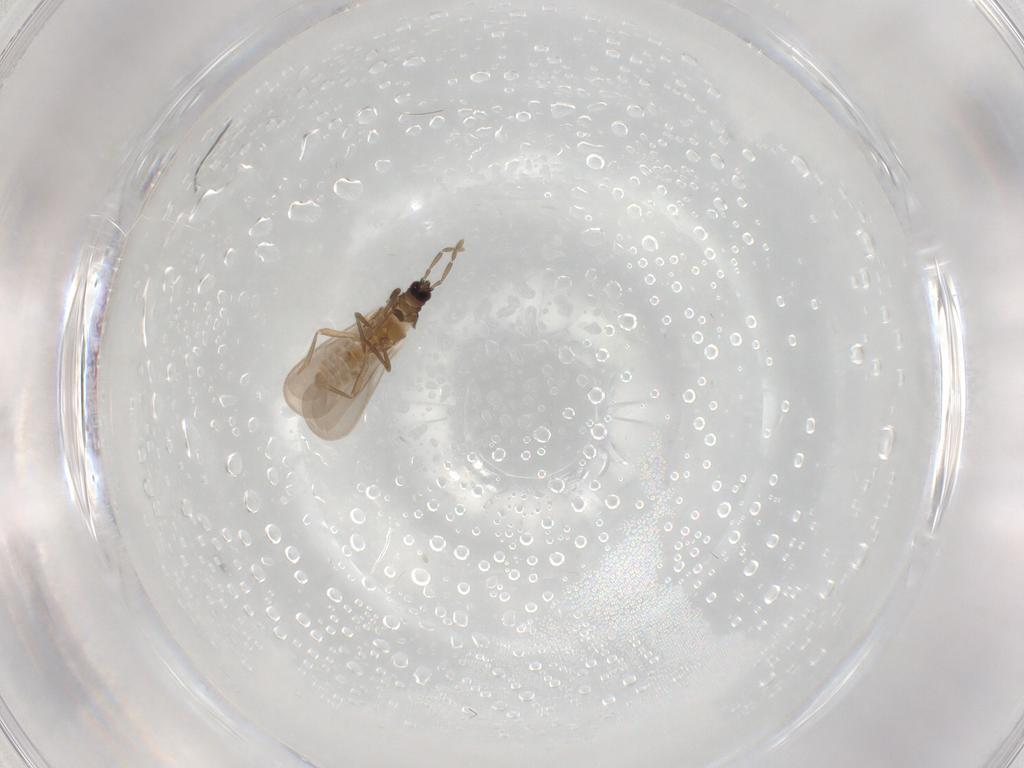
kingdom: Animalia
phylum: Arthropoda
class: Insecta
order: Hemiptera
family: Enicocephalidae
